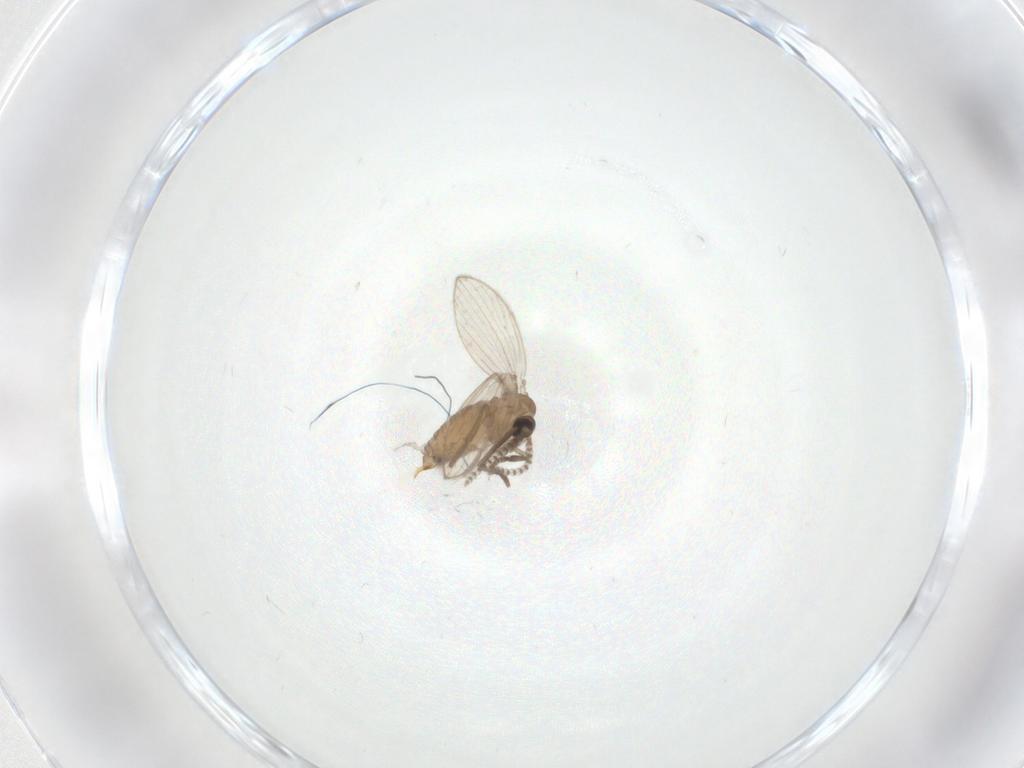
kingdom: Animalia
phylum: Arthropoda
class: Insecta
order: Diptera
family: Psychodidae
